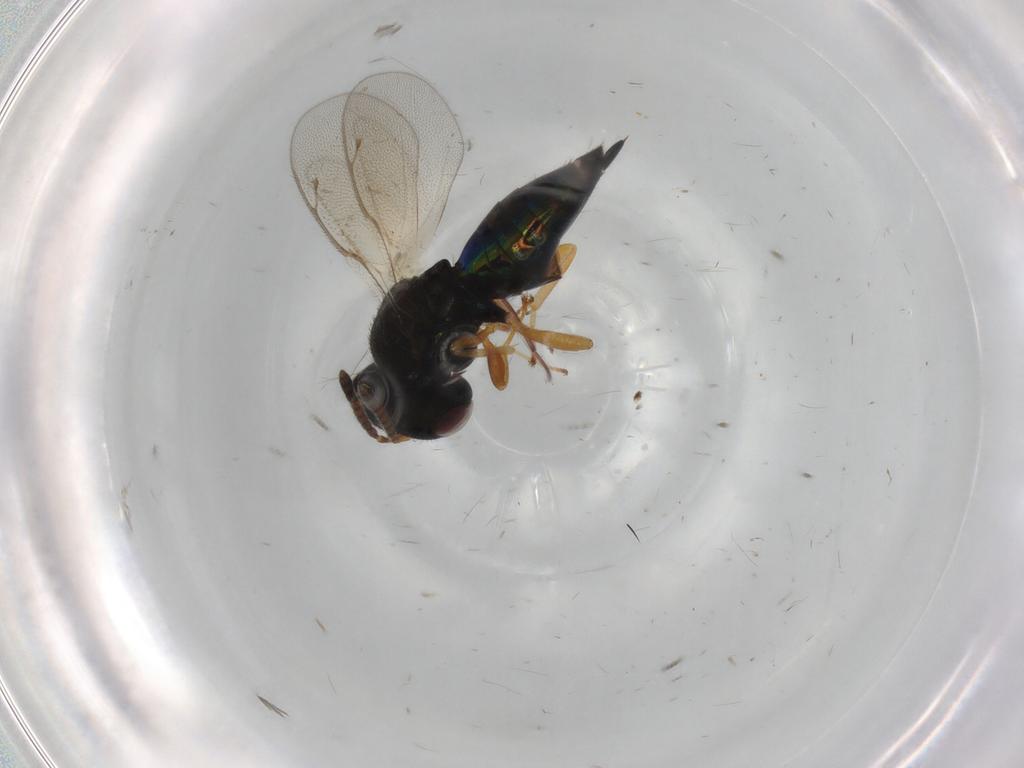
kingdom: Animalia
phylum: Arthropoda
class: Insecta
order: Hymenoptera
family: Pteromalidae
